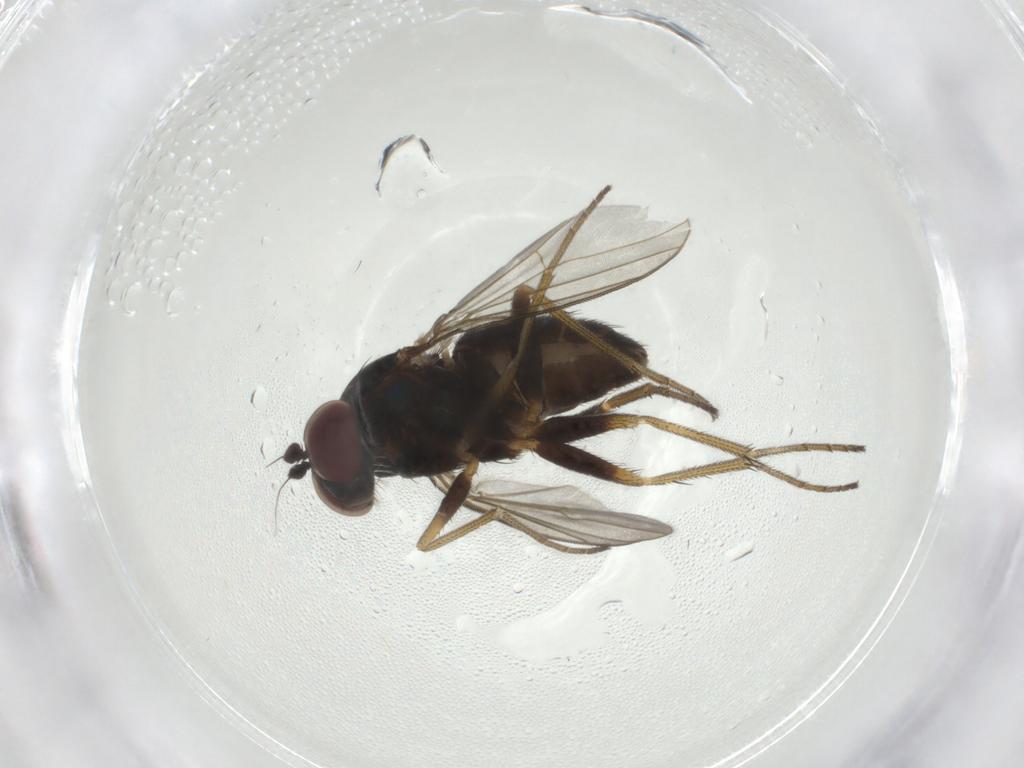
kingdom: Animalia
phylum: Arthropoda
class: Insecta
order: Diptera
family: Dolichopodidae
